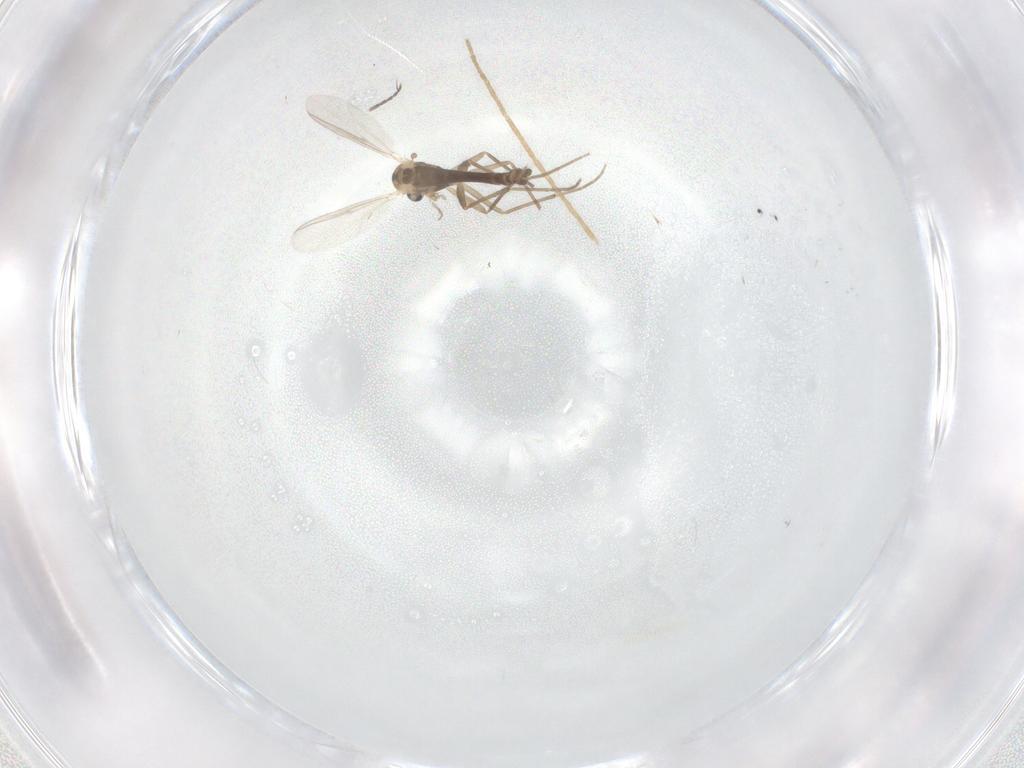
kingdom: Animalia
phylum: Arthropoda
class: Insecta
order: Diptera
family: Chironomidae
